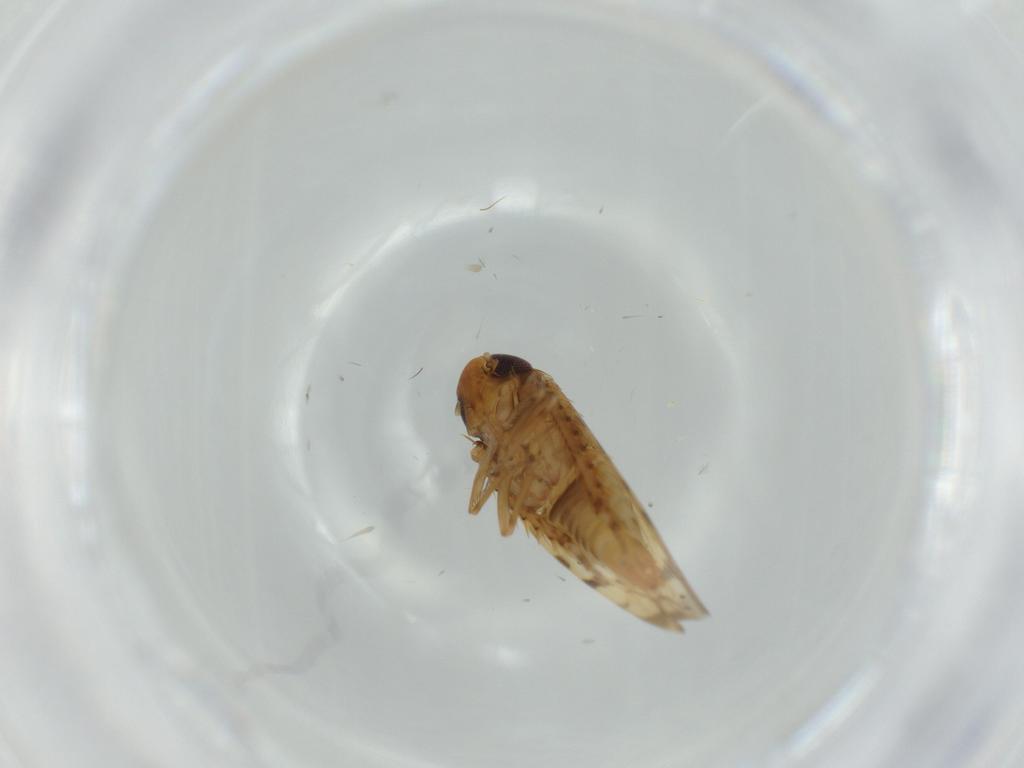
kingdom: Animalia
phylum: Arthropoda
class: Insecta
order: Hemiptera
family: Cicadellidae
